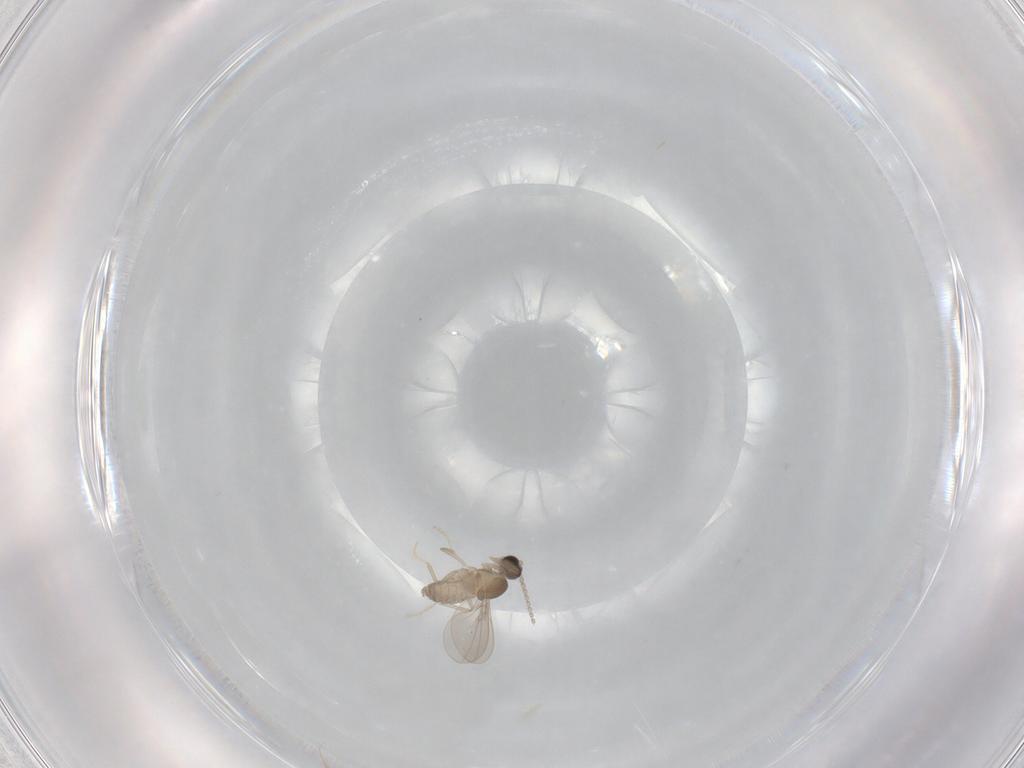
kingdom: Animalia
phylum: Arthropoda
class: Insecta
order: Diptera
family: Cecidomyiidae
